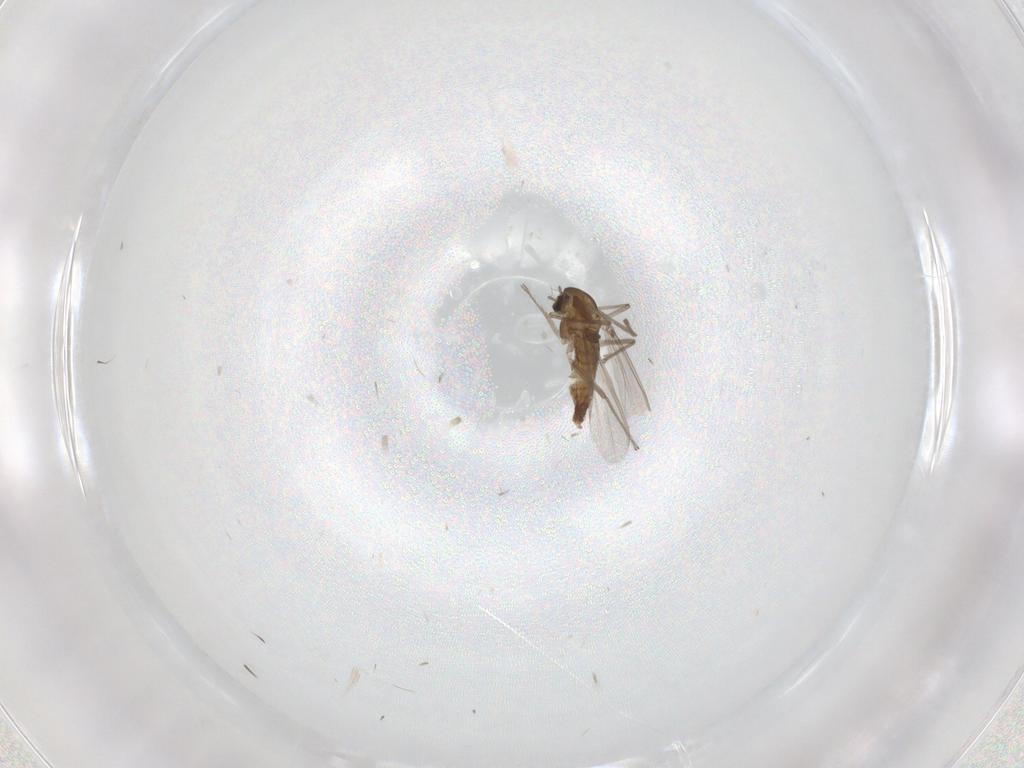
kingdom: Animalia
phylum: Arthropoda
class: Insecta
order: Diptera
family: Chironomidae
